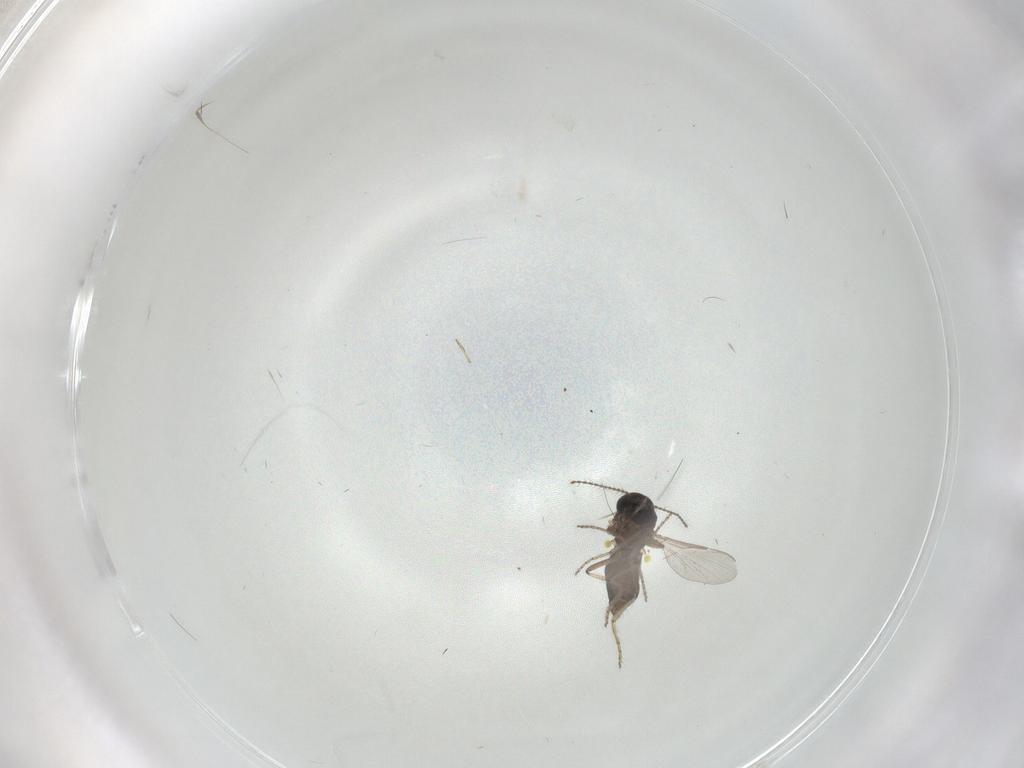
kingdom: Animalia
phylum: Arthropoda
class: Insecta
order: Diptera
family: Ceratopogonidae
